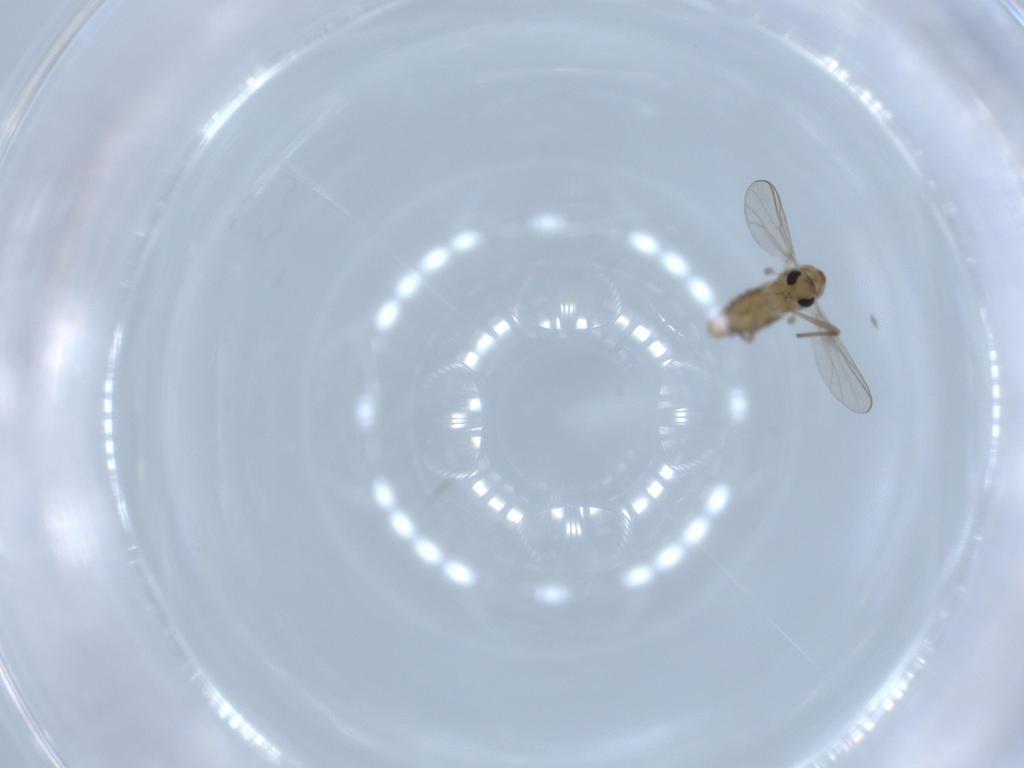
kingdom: Animalia
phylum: Arthropoda
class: Insecta
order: Diptera
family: Chironomidae
